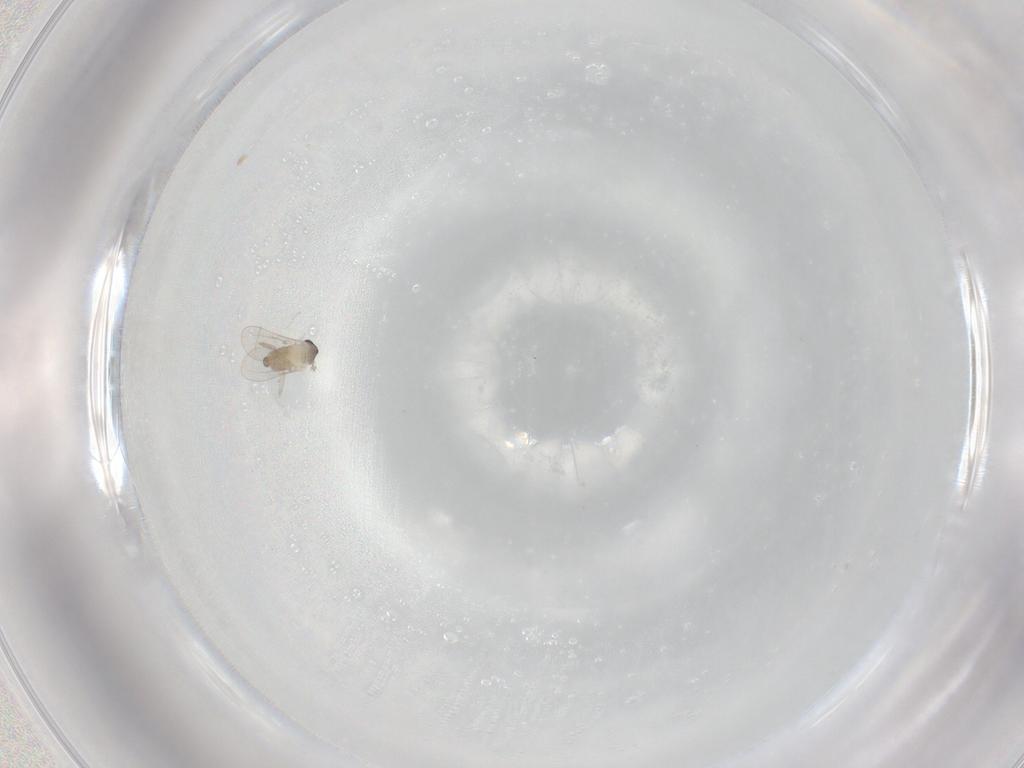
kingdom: Animalia
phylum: Arthropoda
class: Insecta
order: Diptera
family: Cecidomyiidae
